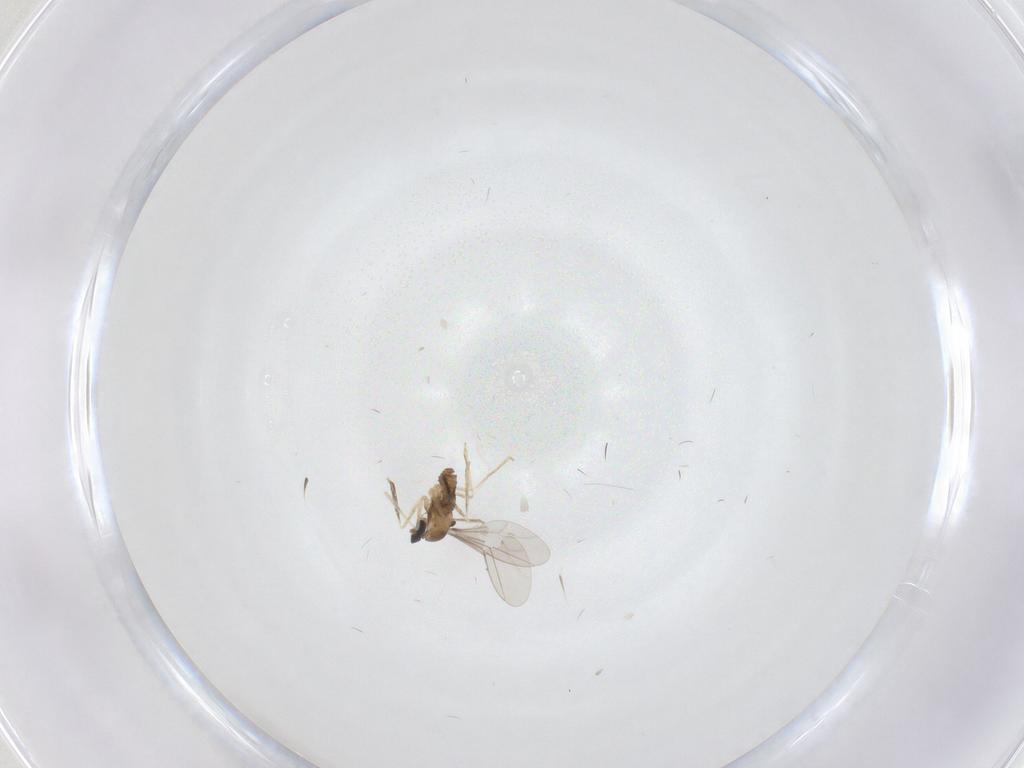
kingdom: Animalia
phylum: Arthropoda
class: Insecta
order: Diptera
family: Cecidomyiidae
